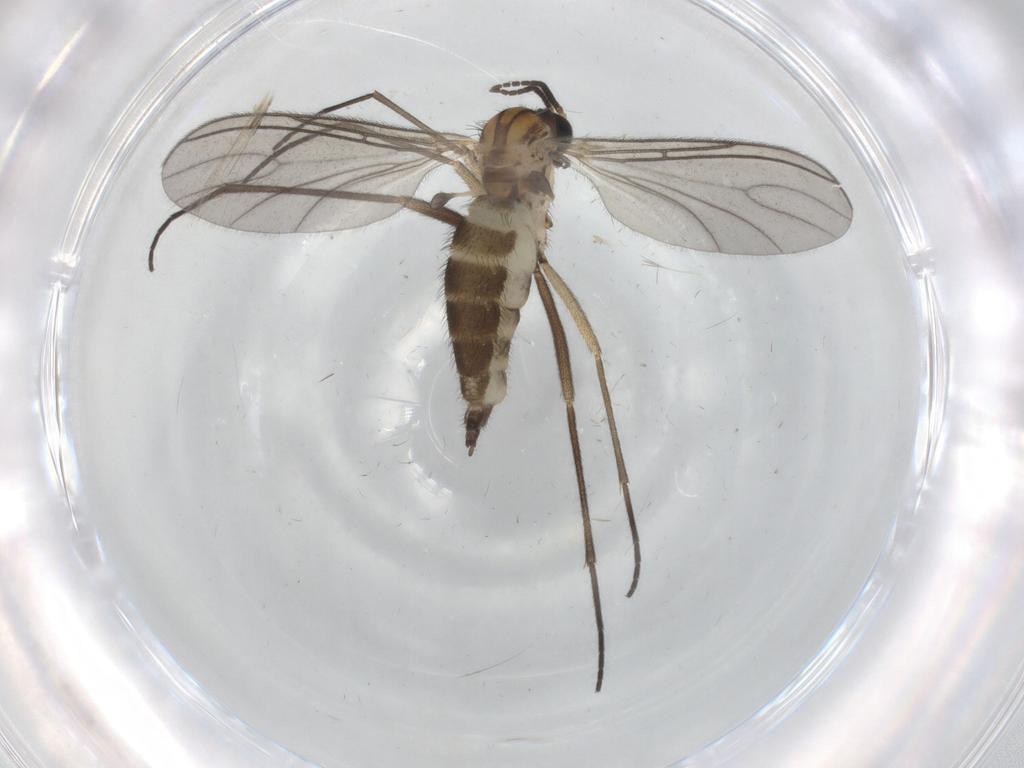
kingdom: Animalia
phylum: Arthropoda
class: Insecta
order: Diptera
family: Sciaridae
